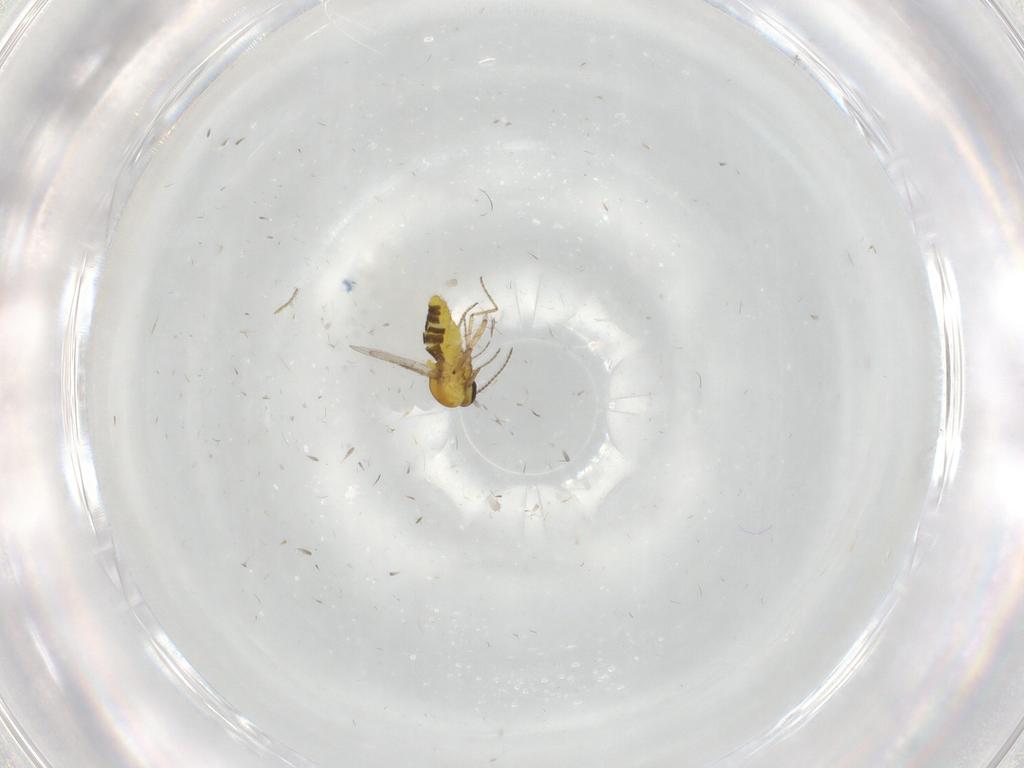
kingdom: Animalia
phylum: Arthropoda
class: Insecta
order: Diptera
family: Ceratopogonidae
